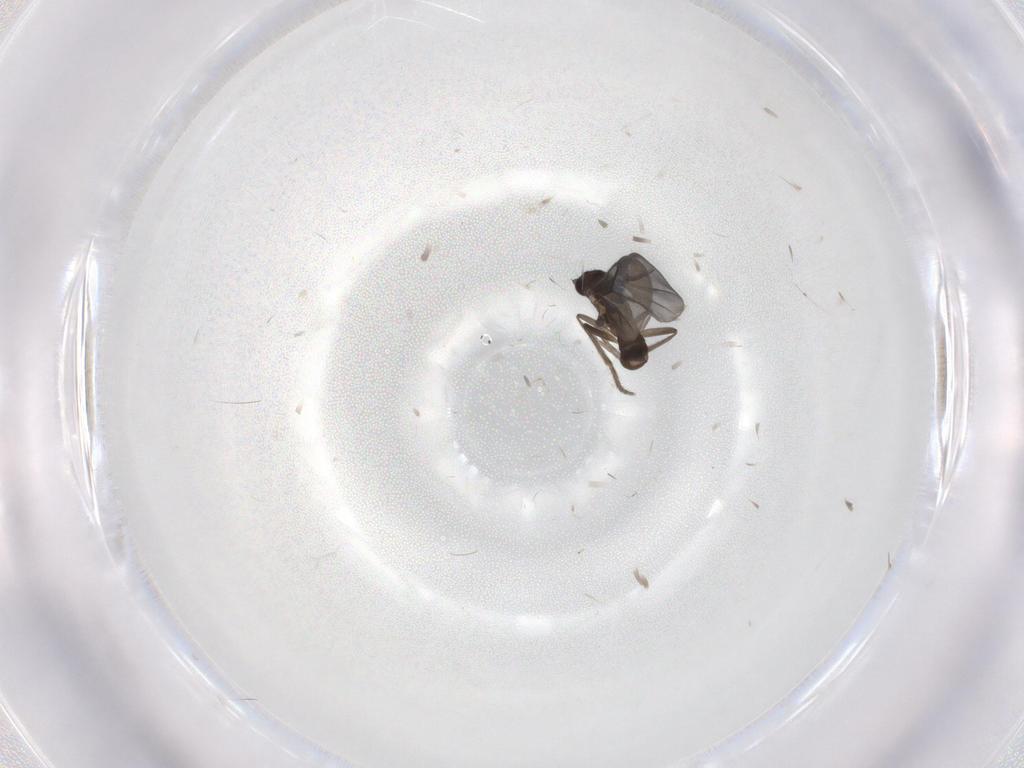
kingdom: Animalia
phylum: Arthropoda
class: Insecta
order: Diptera
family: Phoridae
